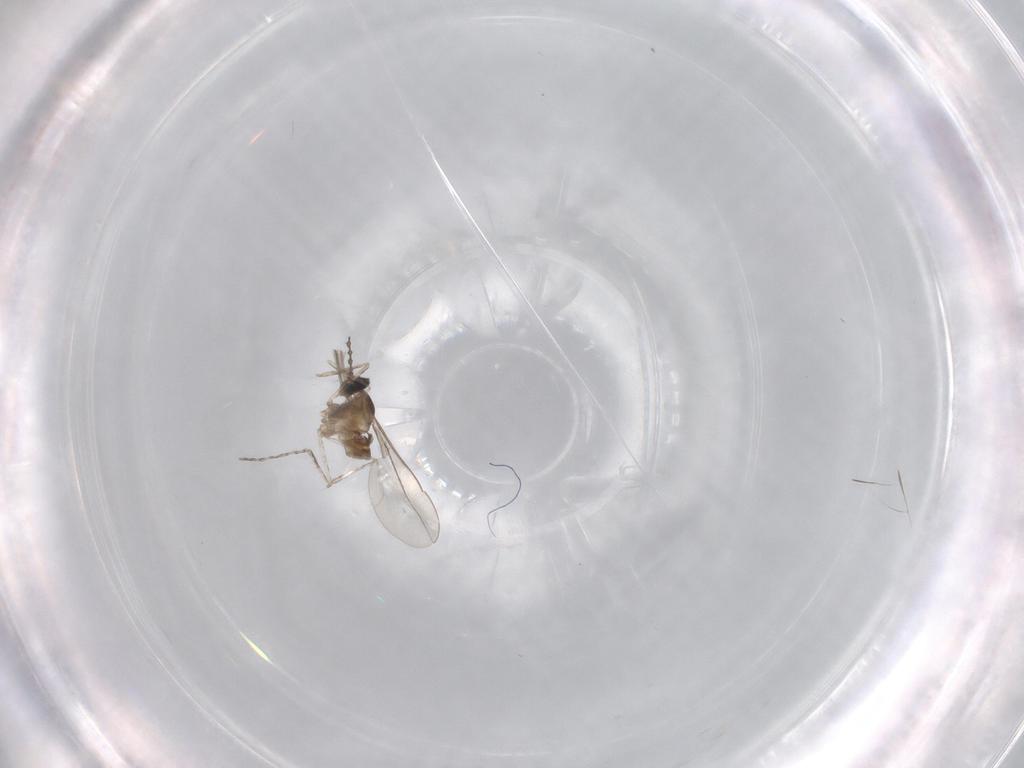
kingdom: Animalia
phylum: Arthropoda
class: Insecta
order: Diptera
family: Cecidomyiidae
